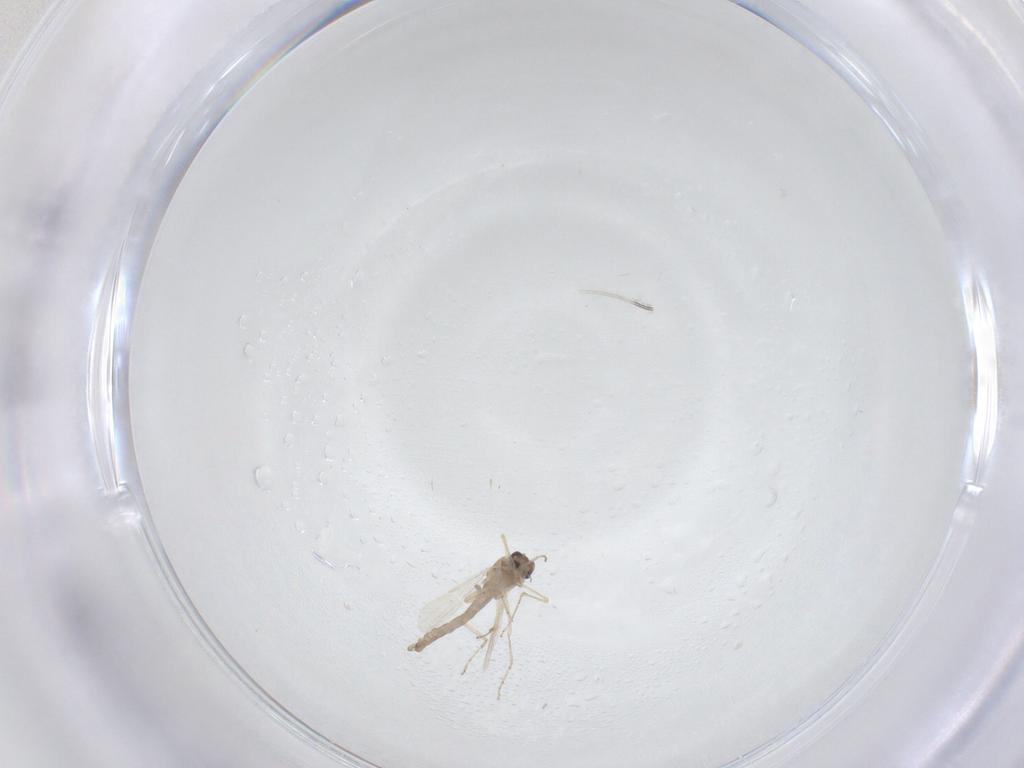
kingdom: Animalia
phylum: Arthropoda
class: Insecta
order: Diptera
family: Ceratopogonidae
